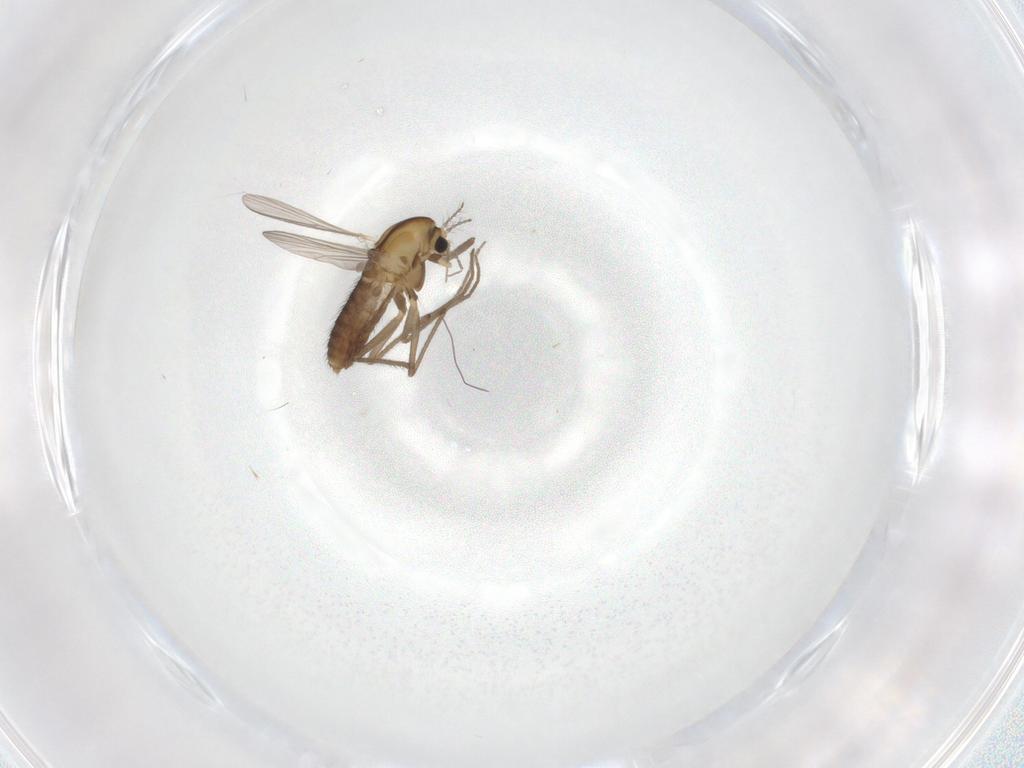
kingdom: Animalia
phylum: Arthropoda
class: Insecta
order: Diptera
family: Chironomidae
